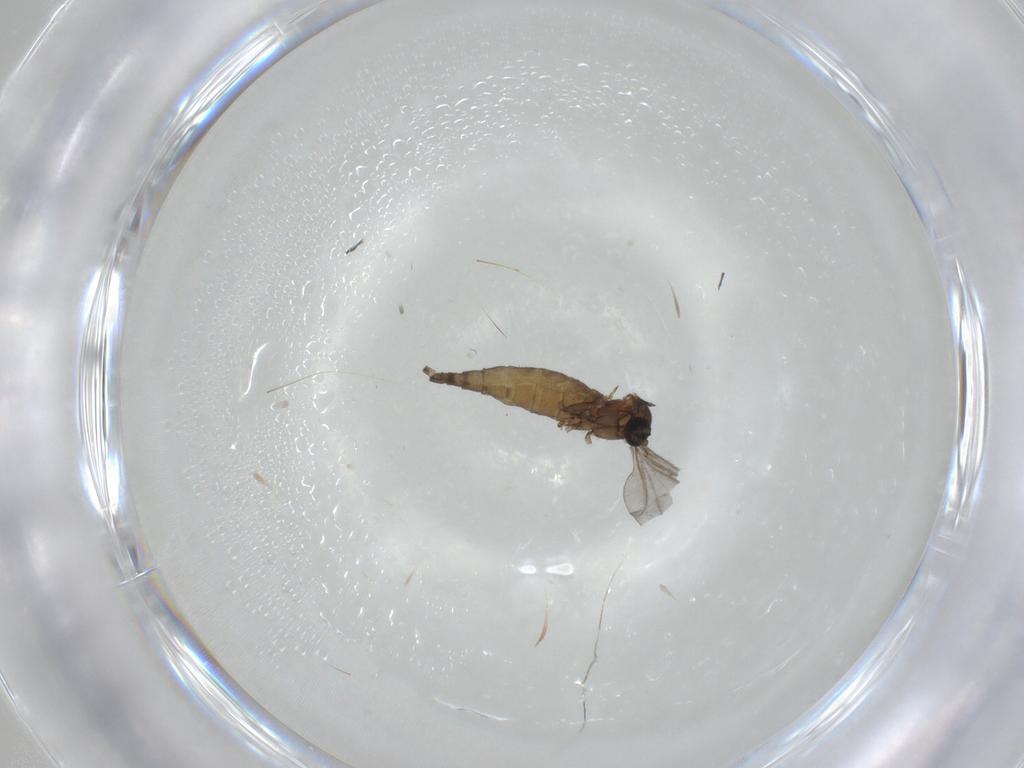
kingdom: Animalia
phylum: Arthropoda
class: Insecta
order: Diptera
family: Sciaridae
